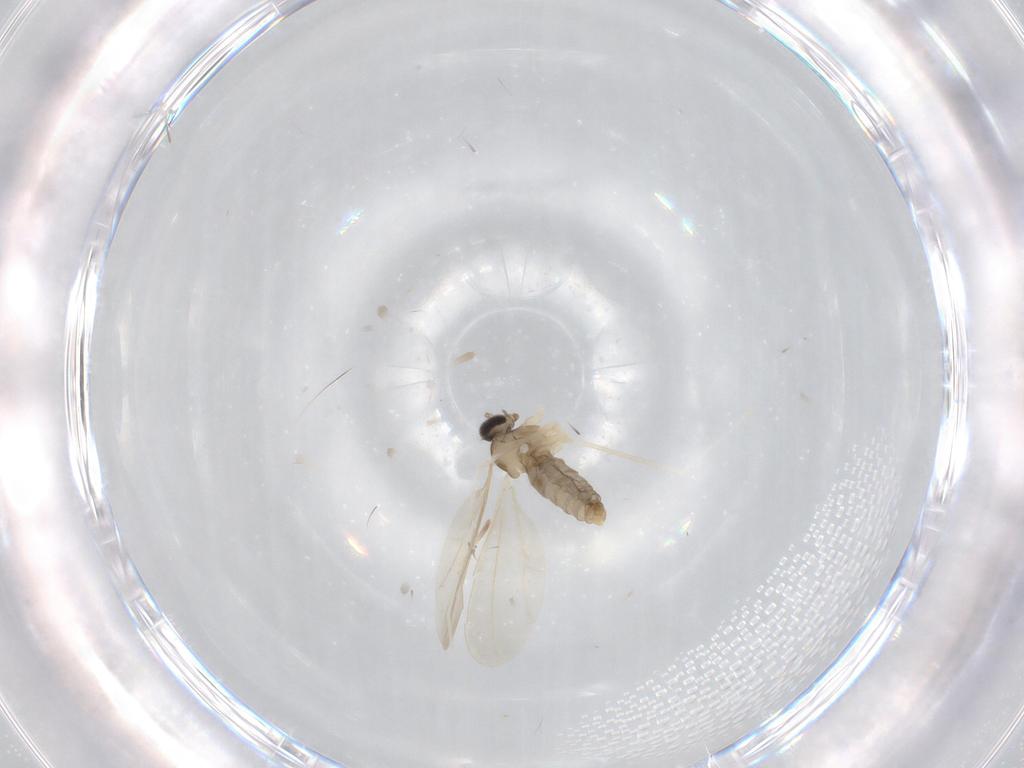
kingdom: Animalia
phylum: Arthropoda
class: Insecta
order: Diptera
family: Cecidomyiidae
